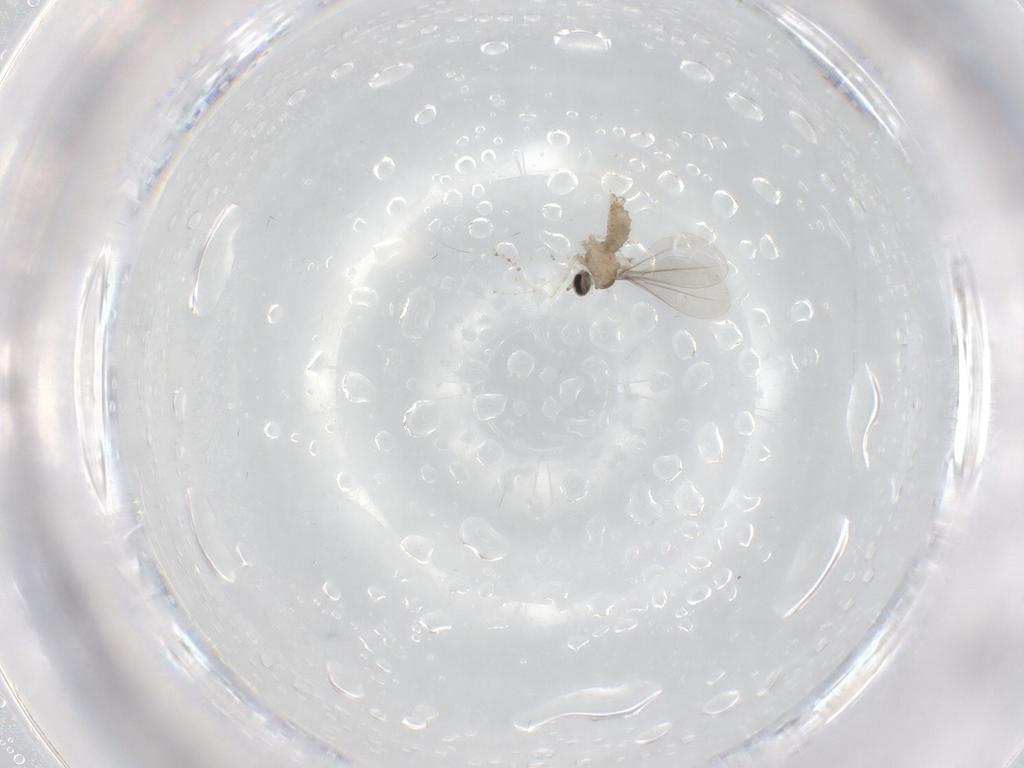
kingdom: Animalia
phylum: Arthropoda
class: Insecta
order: Diptera
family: Cecidomyiidae
